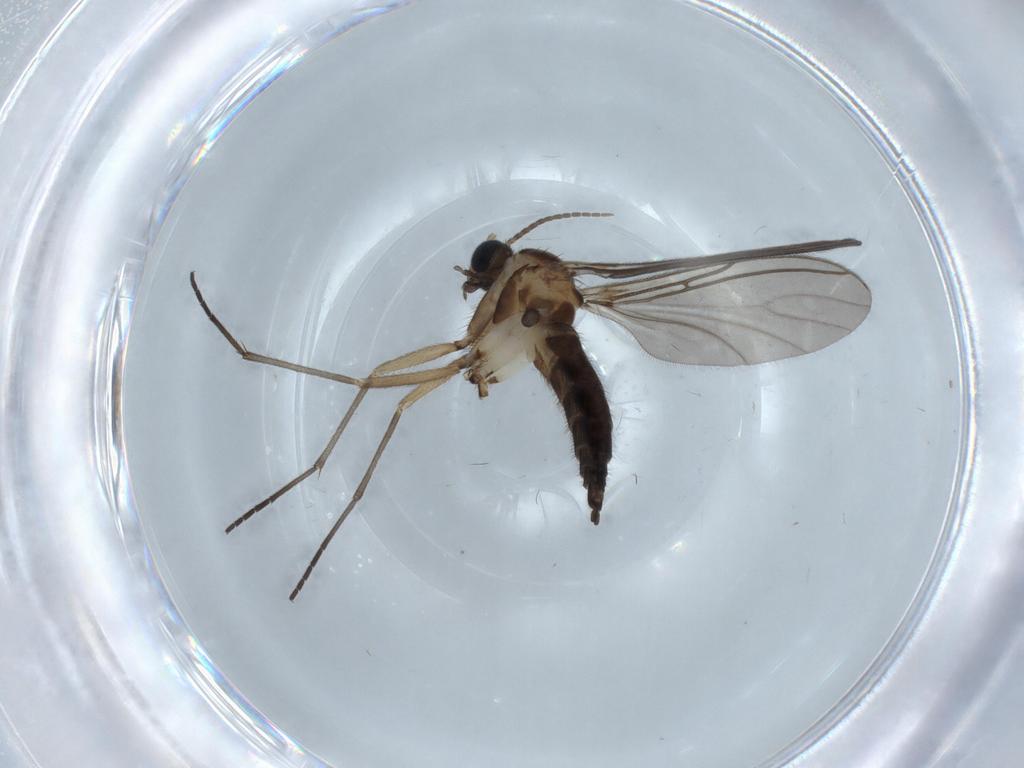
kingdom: Animalia
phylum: Arthropoda
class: Insecta
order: Diptera
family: Sciaridae
